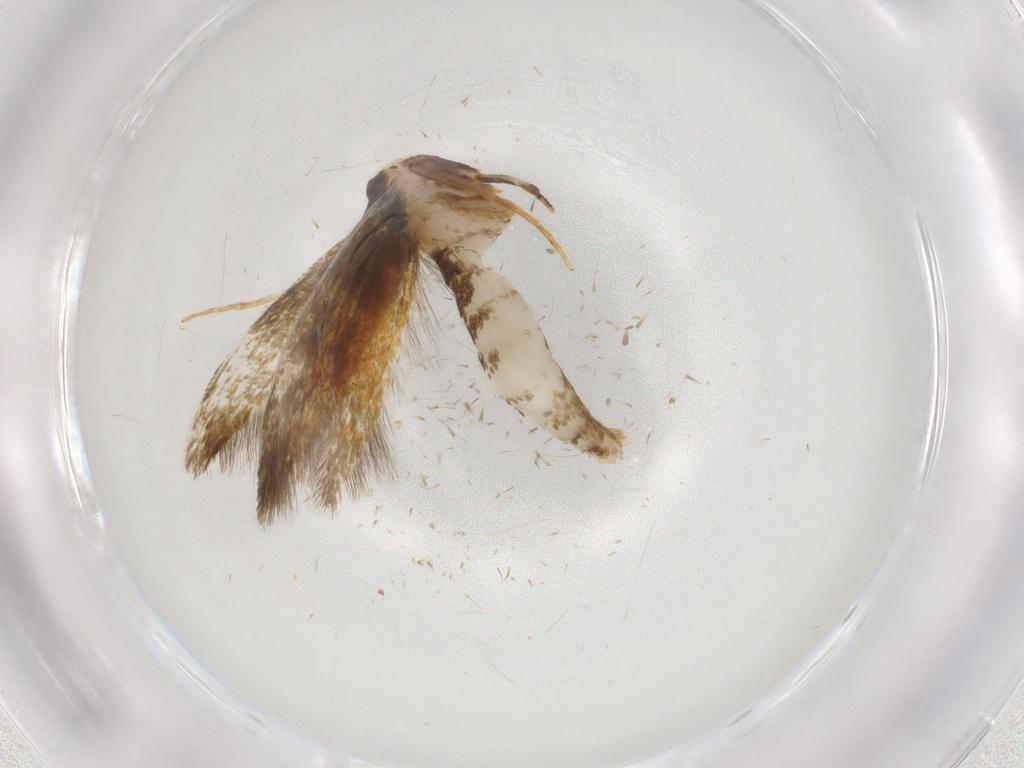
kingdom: Animalia
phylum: Arthropoda
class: Insecta
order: Lepidoptera
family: Tineidae
